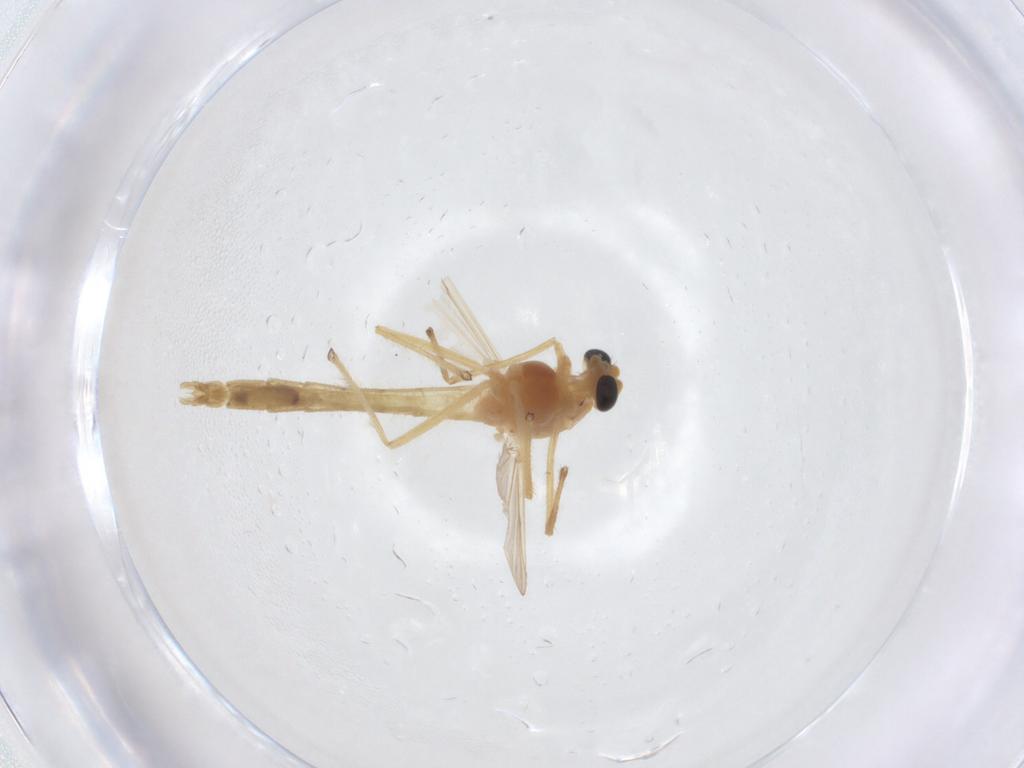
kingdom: Animalia
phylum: Arthropoda
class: Insecta
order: Diptera
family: Chironomidae
